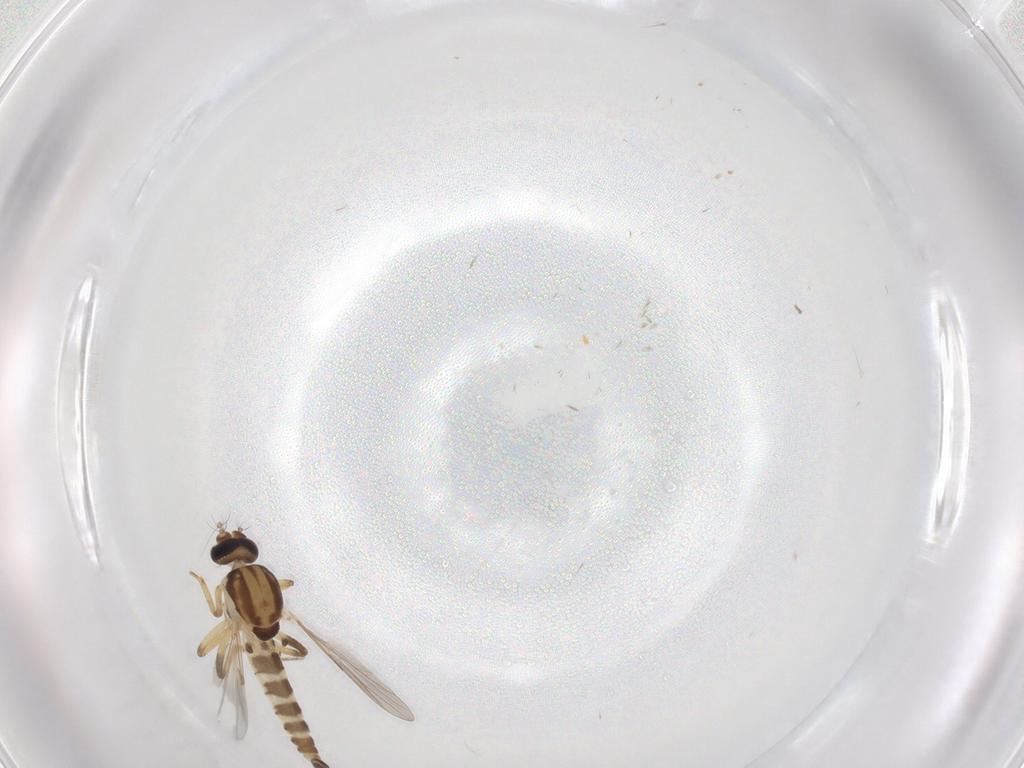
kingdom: Animalia
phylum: Arthropoda
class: Insecta
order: Diptera
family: Ceratopogonidae
